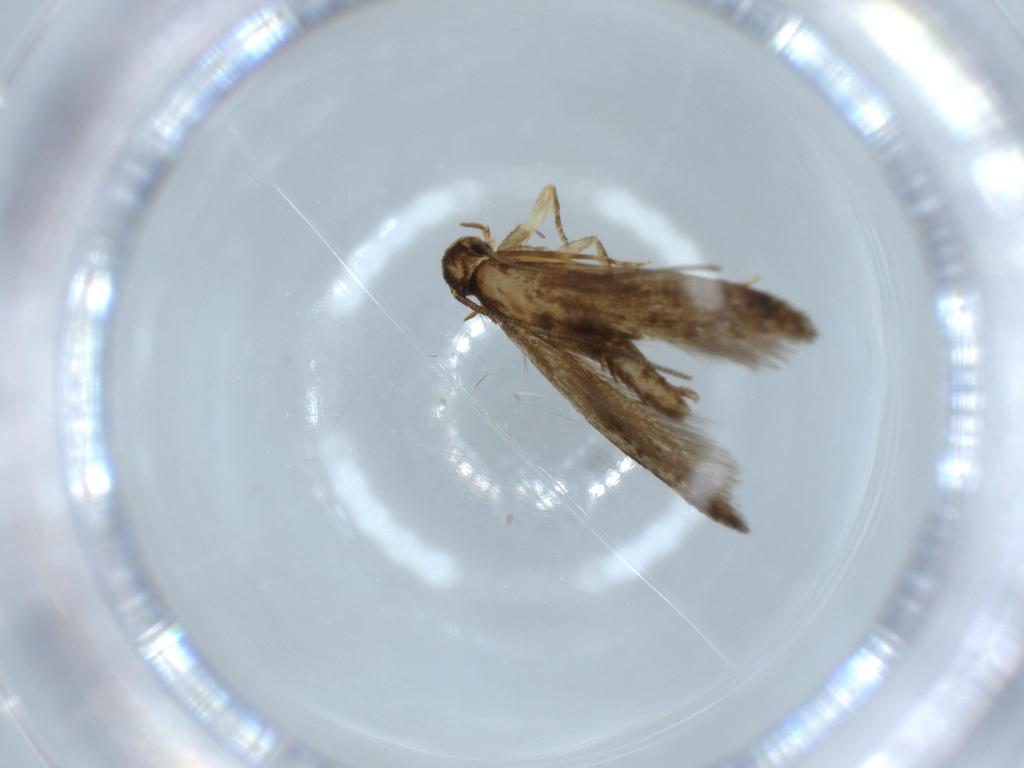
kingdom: Animalia
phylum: Arthropoda
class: Insecta
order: Lepidoptera
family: Tineidae
